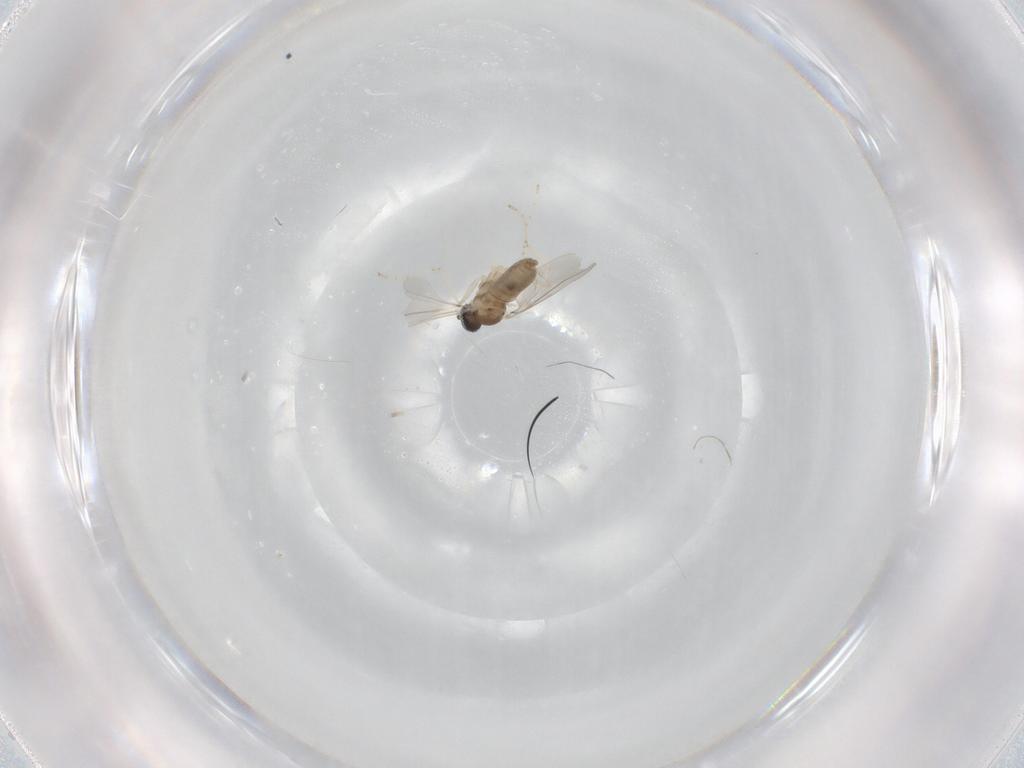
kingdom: Animalia
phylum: Arthropoda
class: Insecta
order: Diptera
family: Cecidomyiidae
